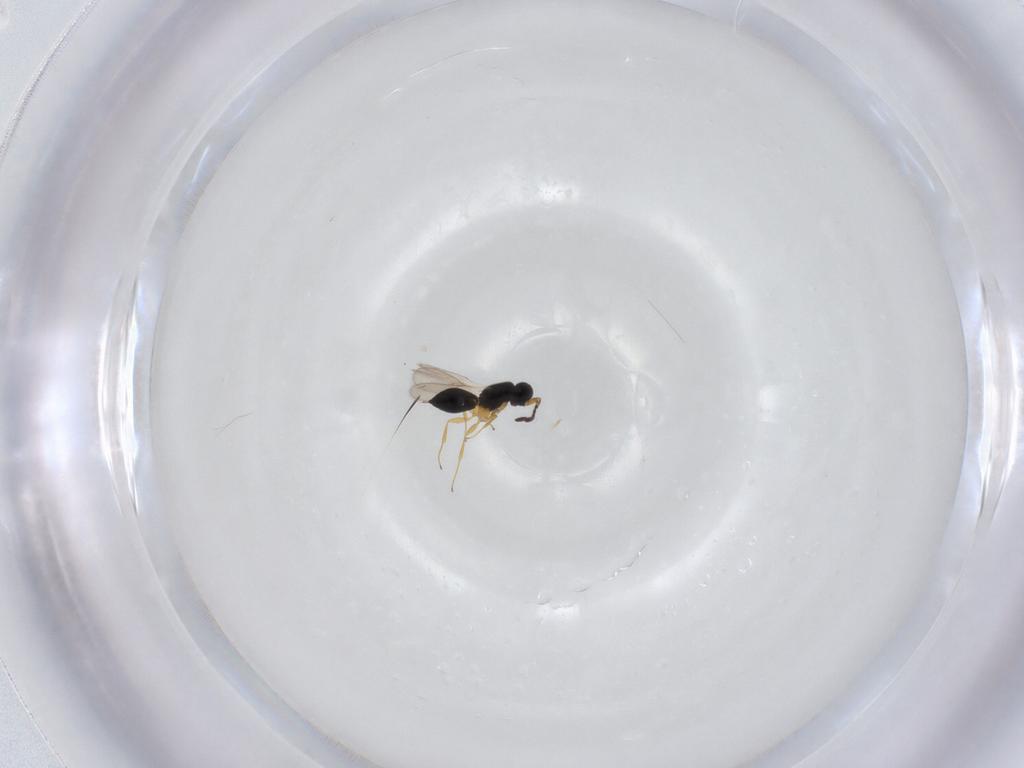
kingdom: Animalia
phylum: Arthropoda
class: Insecta
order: Hymenoptera
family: Scelionidae
